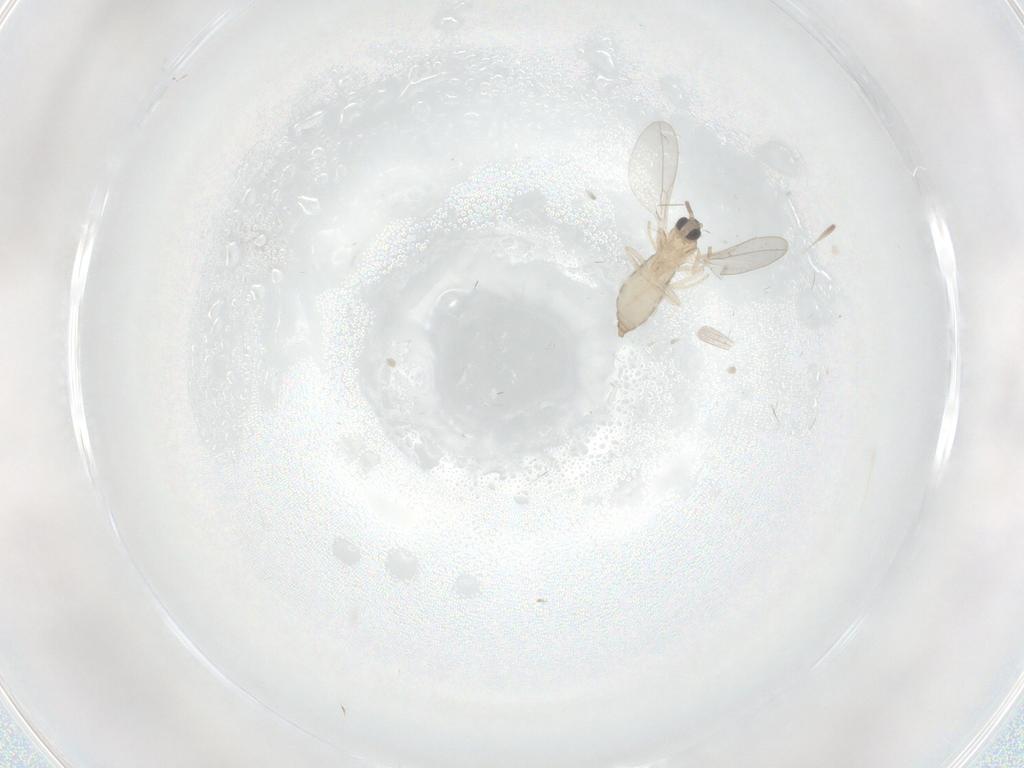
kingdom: Animalia
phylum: Arthropoda
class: Insecta
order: Diptera
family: Cecidomyiidae
